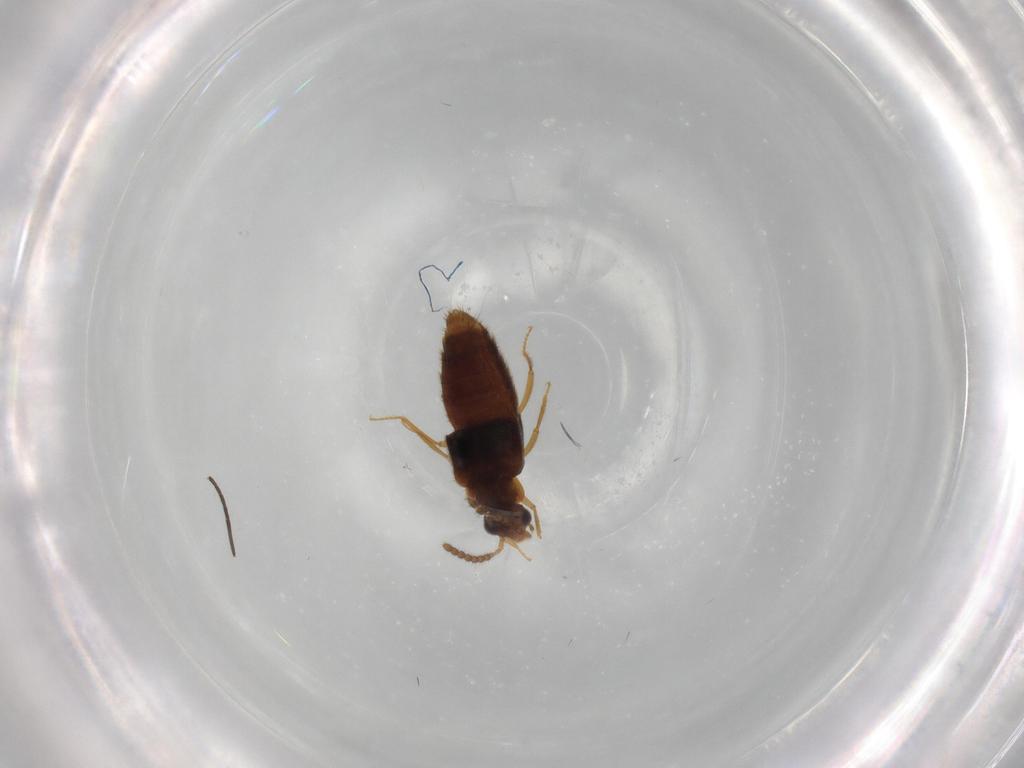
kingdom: Animalia
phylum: Arthropoda
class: Insecta
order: Coleoptera
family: Staphylinidae
